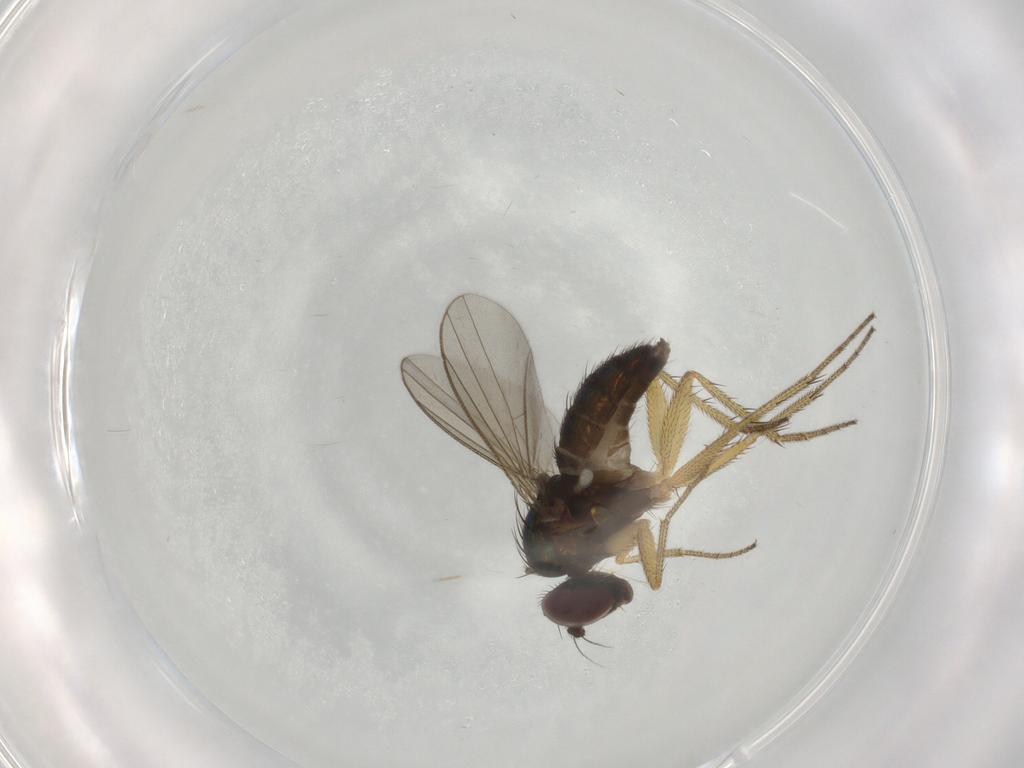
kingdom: Animalia
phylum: Arthropoda
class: Insecta
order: Diptera
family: Dolichopodidae
